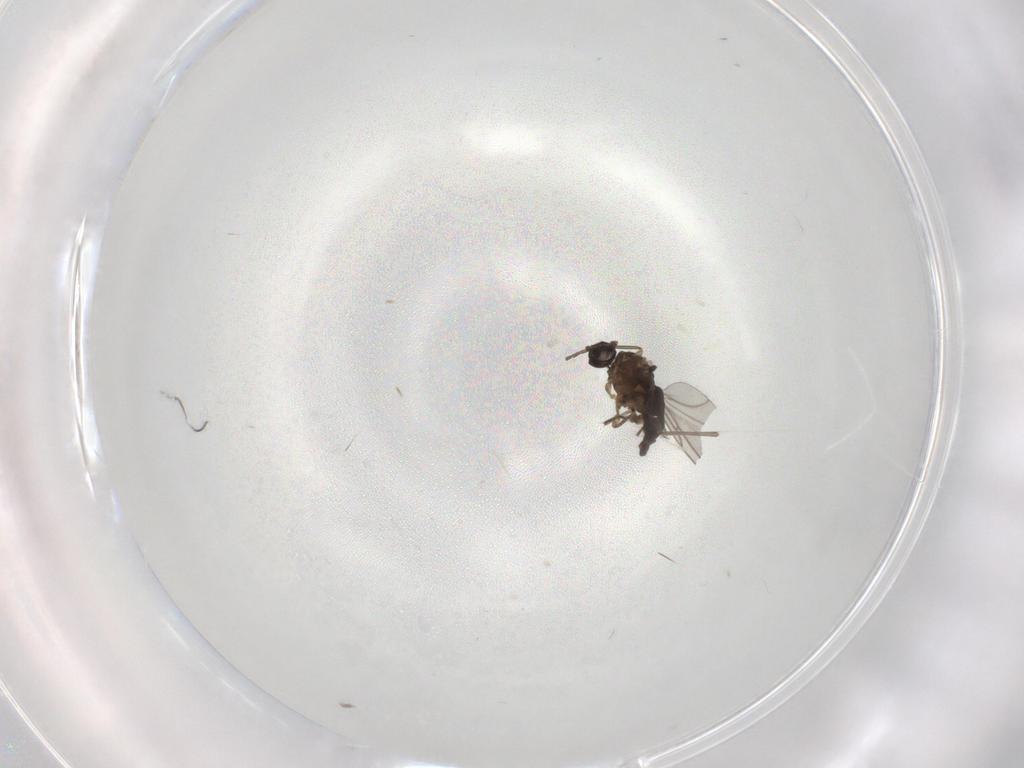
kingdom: Animalia
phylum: Arthropoda
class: Insecta
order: Diptera
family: Sciaridae
